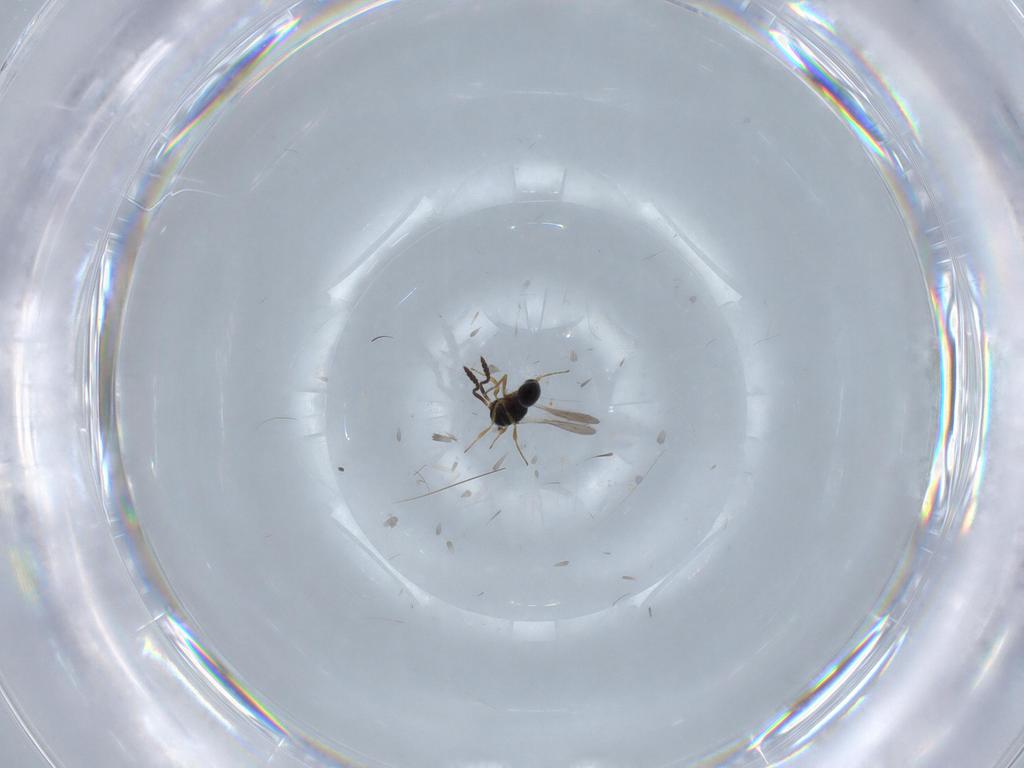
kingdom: Animalia
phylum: Arthropoda
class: Insecta
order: Hymenoptera
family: Scelionidae
